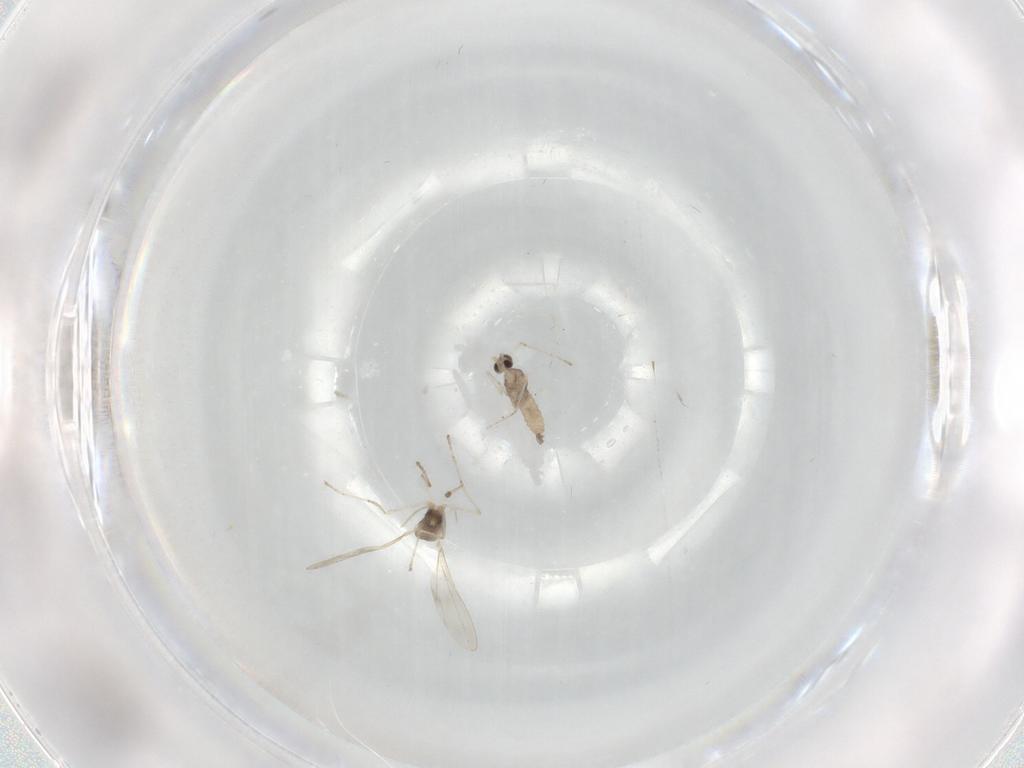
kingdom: Animalia
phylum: Arthropoda
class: Insecta
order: Diptera
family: Cecidomyiidae
